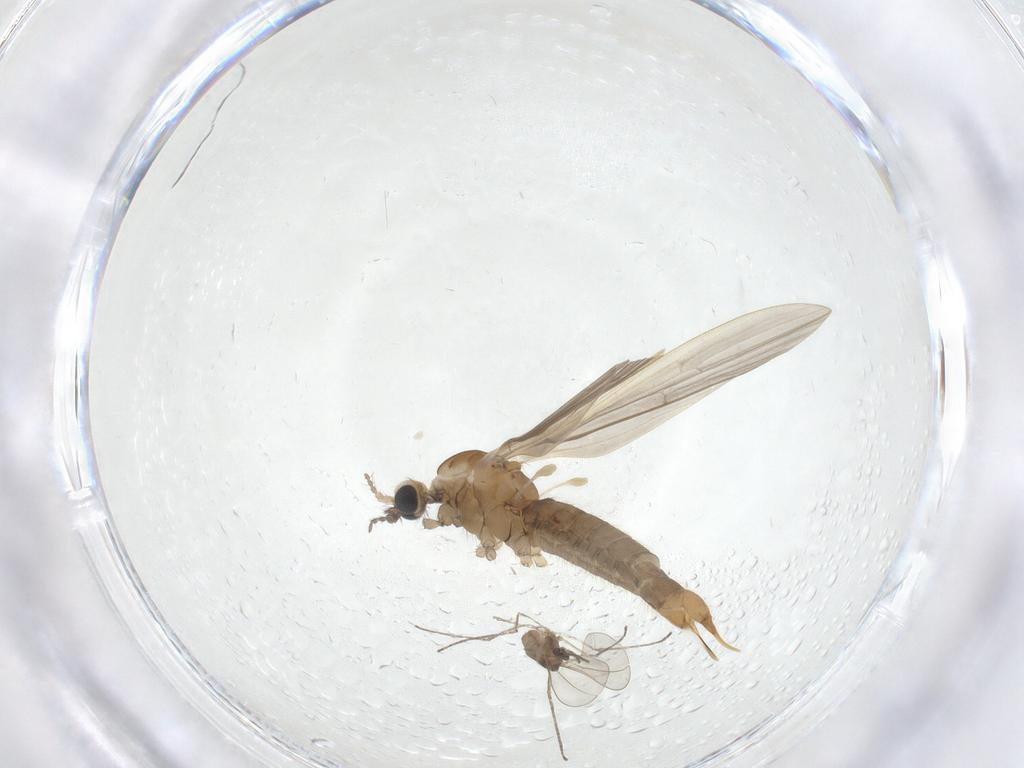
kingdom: Animalia
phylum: Arthropoda
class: Insecta
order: Diptera
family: Limoniidae
